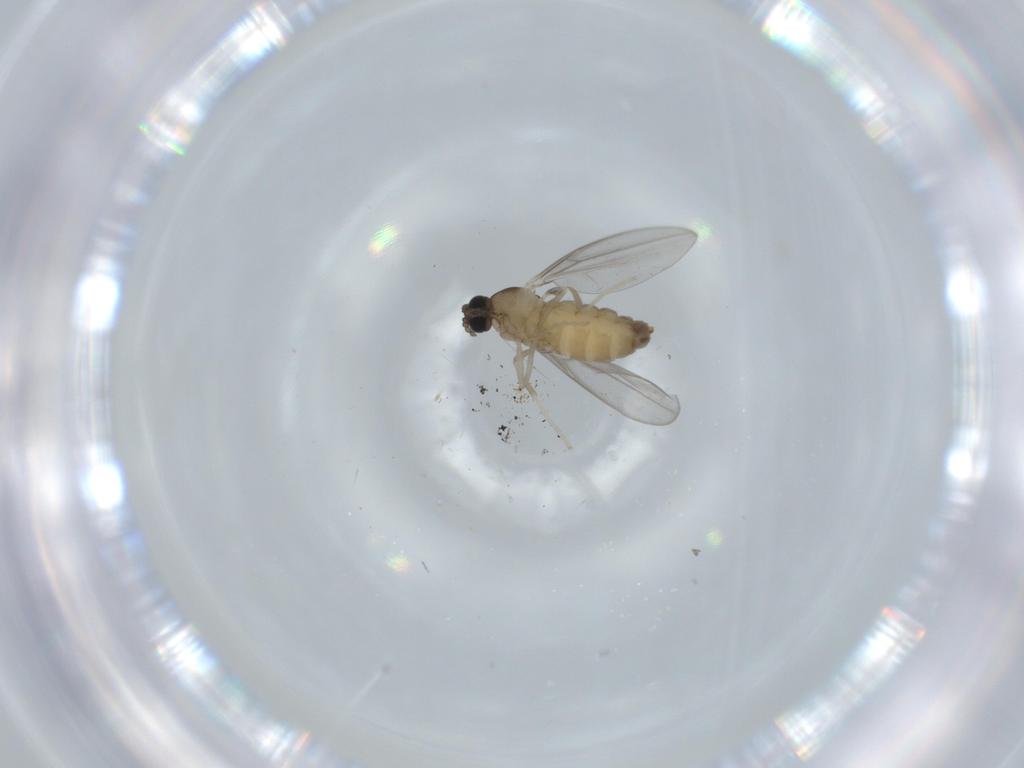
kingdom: Animalia
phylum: Arthropoda
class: Insecta
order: Diptera
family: Cecidomyiidae
